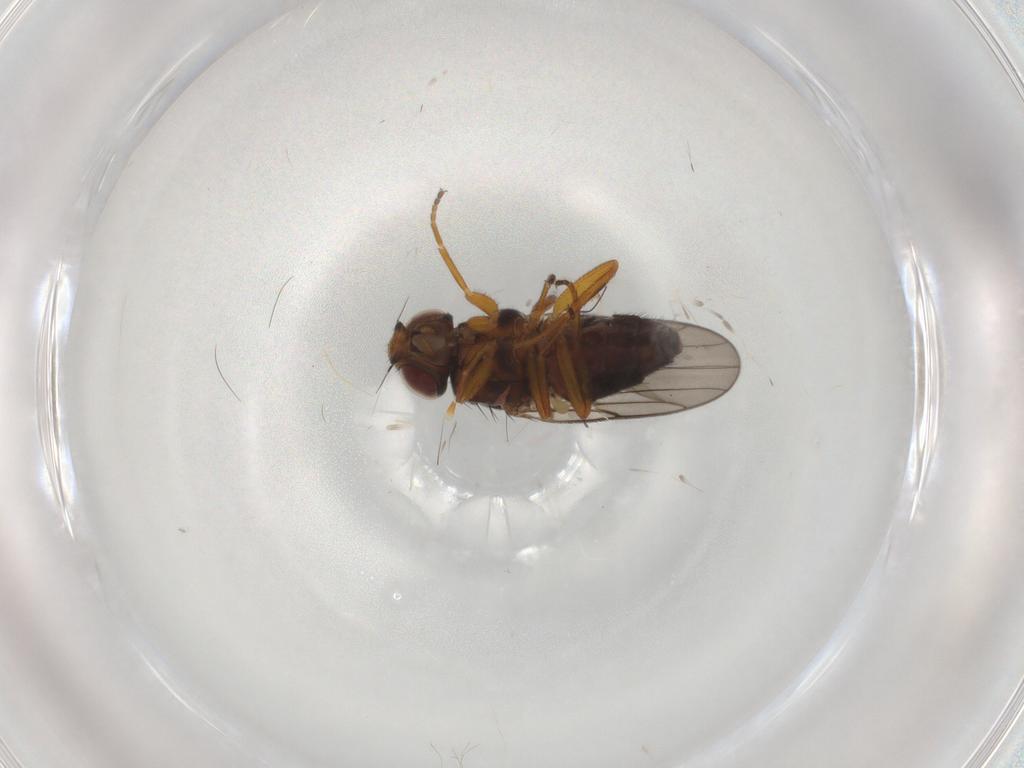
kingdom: Animalia
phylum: Arthropoda
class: Insecta
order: Diptera
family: Chloropidae
